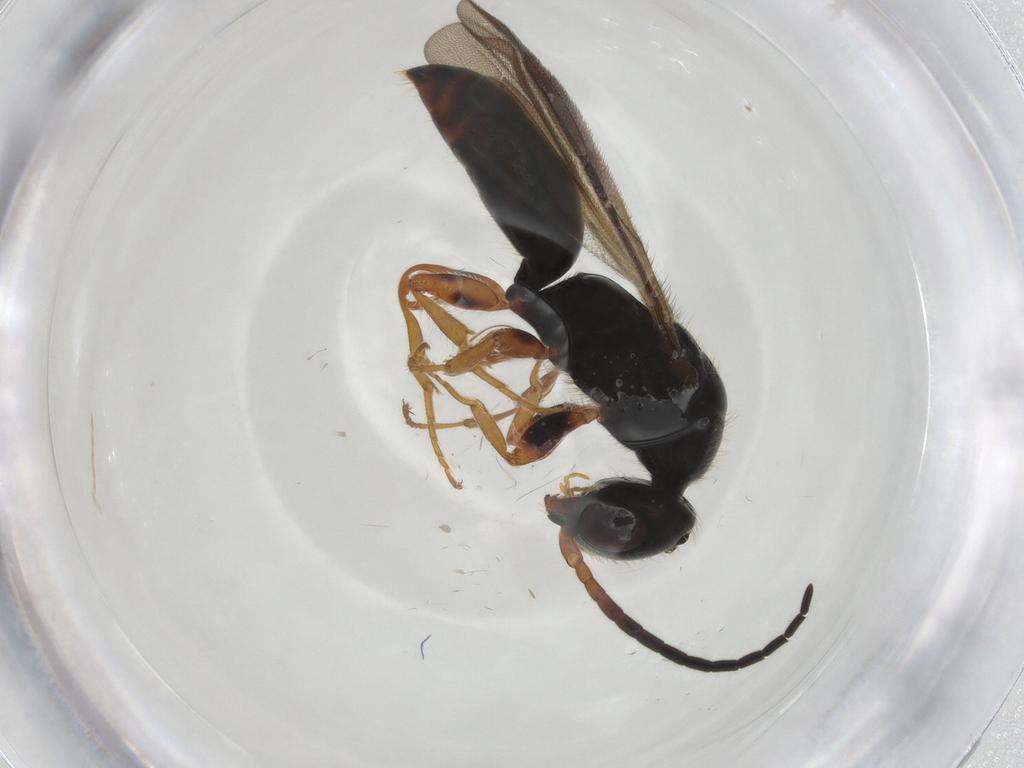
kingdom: Animalia
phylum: Arthropoda
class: Insecta
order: Hymenoptera
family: Bethylidae
